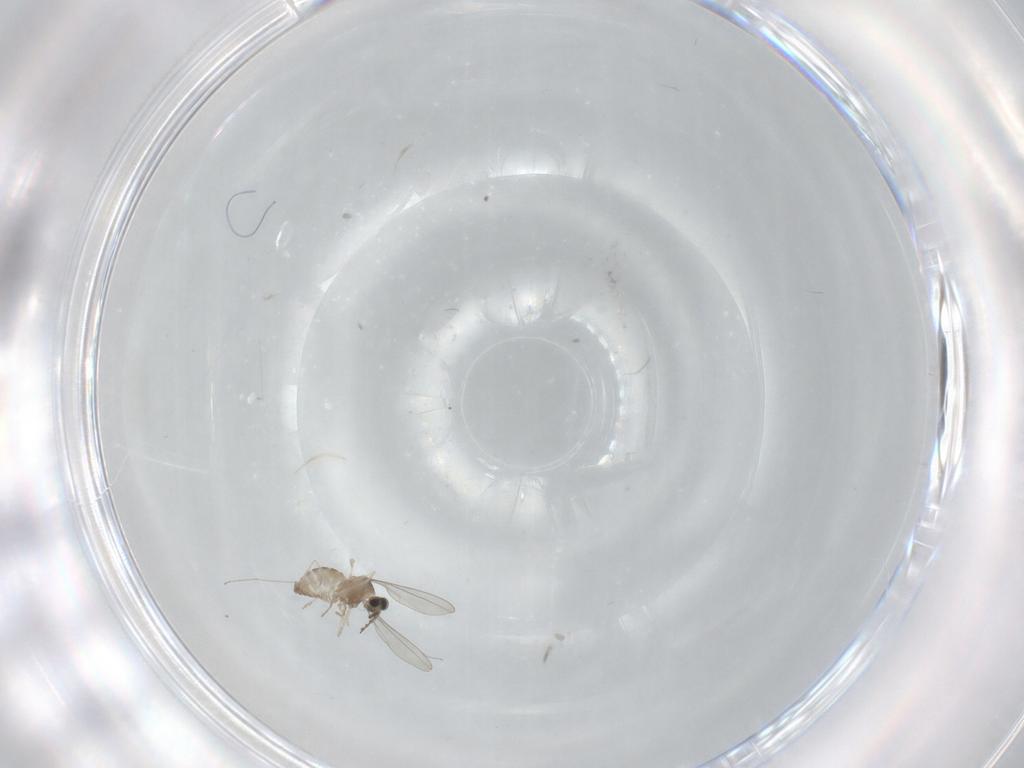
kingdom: Animalia
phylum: Arthropoda
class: Insecta
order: Diptera
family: Cecidomyiidae
